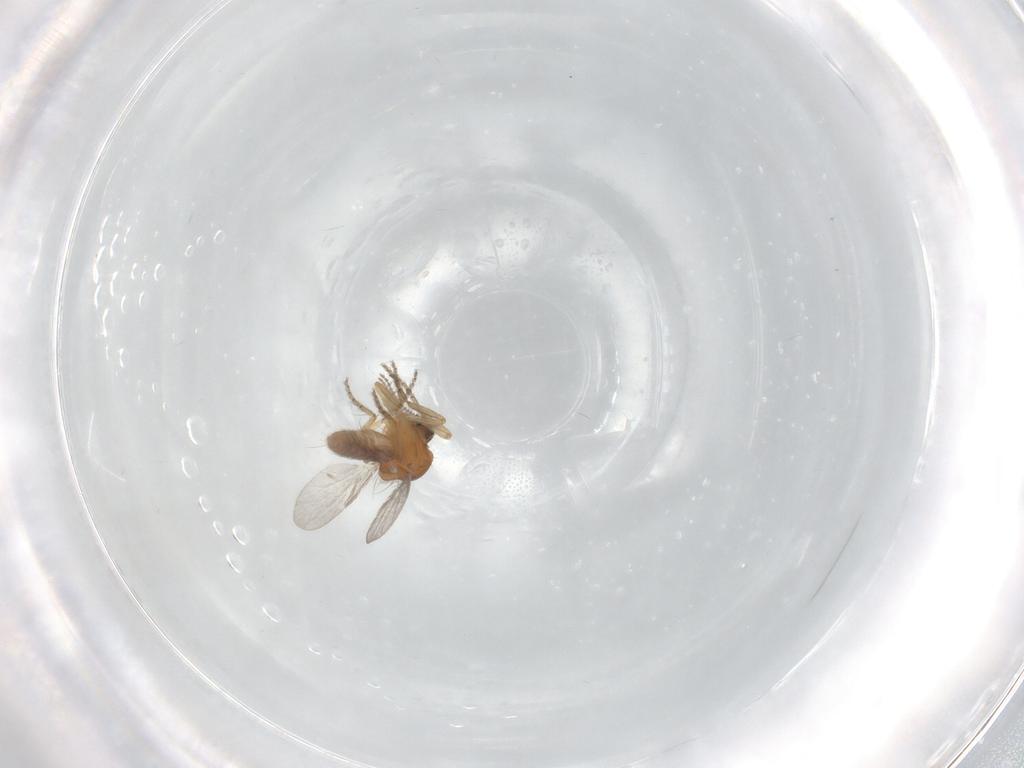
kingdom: Animalia
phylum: Arthropoda
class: Insecta
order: Diptera
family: Ceratopogonidae
